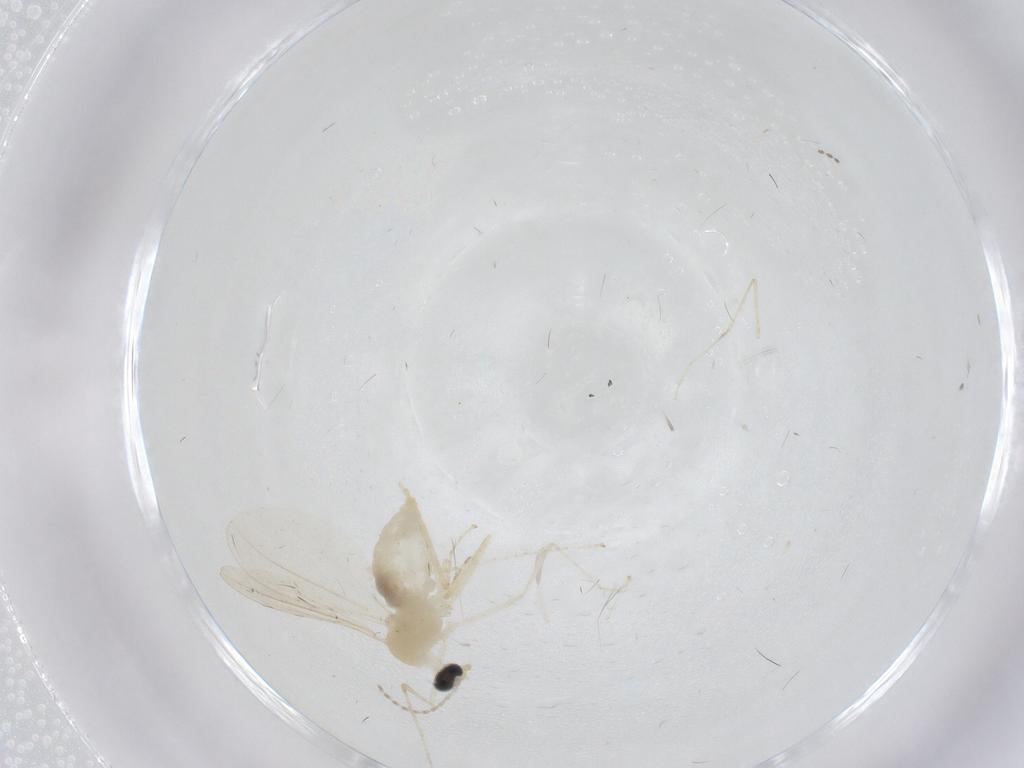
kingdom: Animalia
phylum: Arthropoda
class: Insecta
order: Diptera
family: Cecidomyiidae
